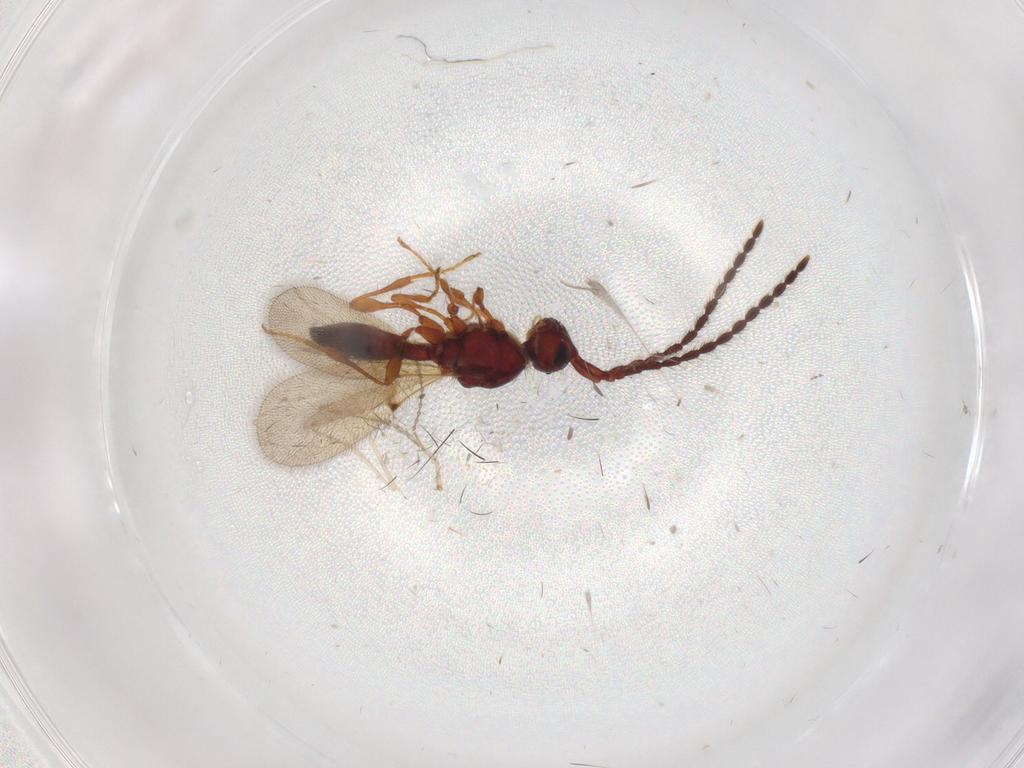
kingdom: Animalia
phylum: Arthropoda
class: Insecta
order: Hymenoptera
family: Diapriidae
